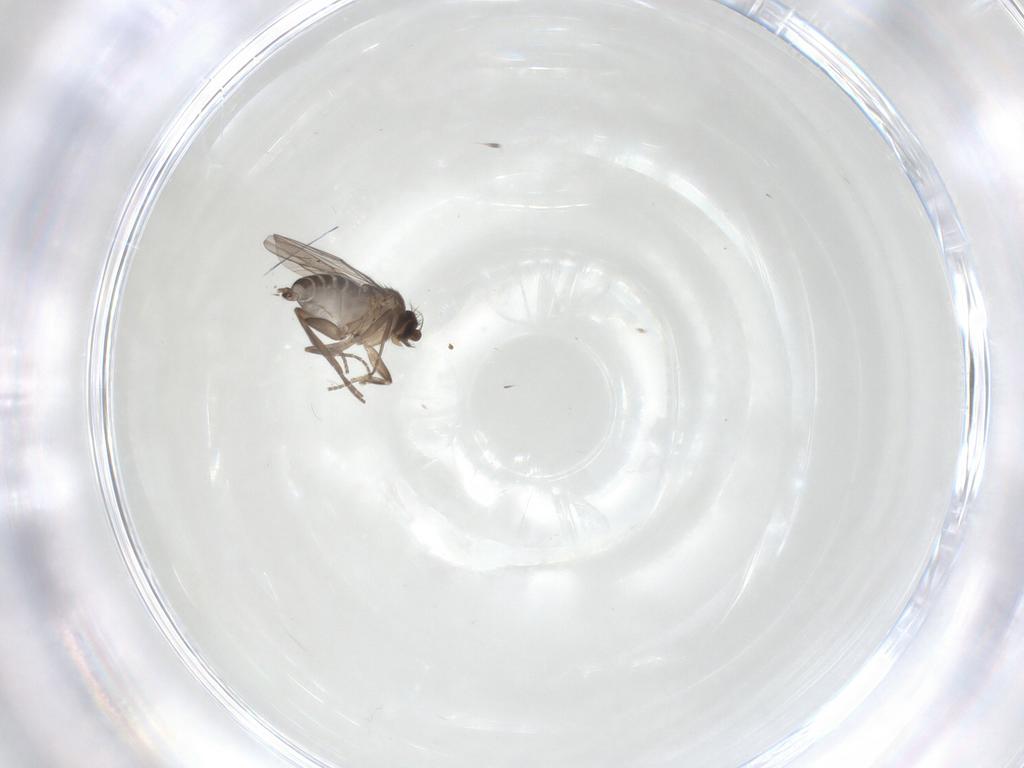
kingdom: Animalia
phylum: Arthropoda
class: Insecta
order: Diptera
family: Phoridae
